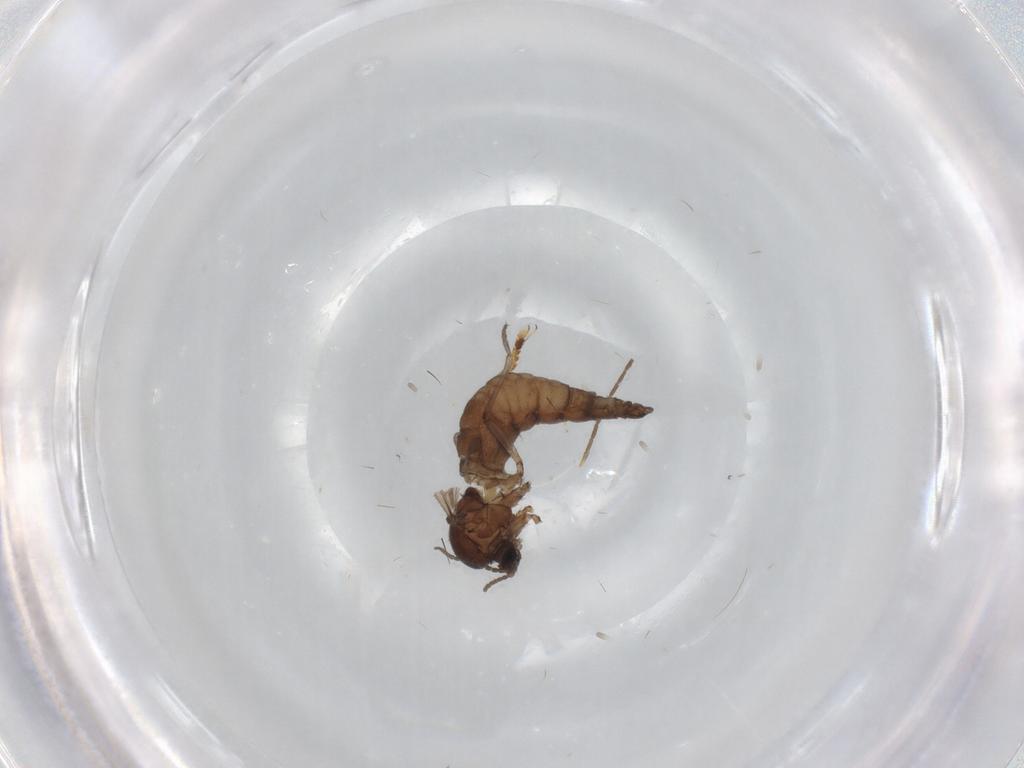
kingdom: Animalia
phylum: Arthropoda
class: Insecta
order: Diptera
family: Sciaridae
